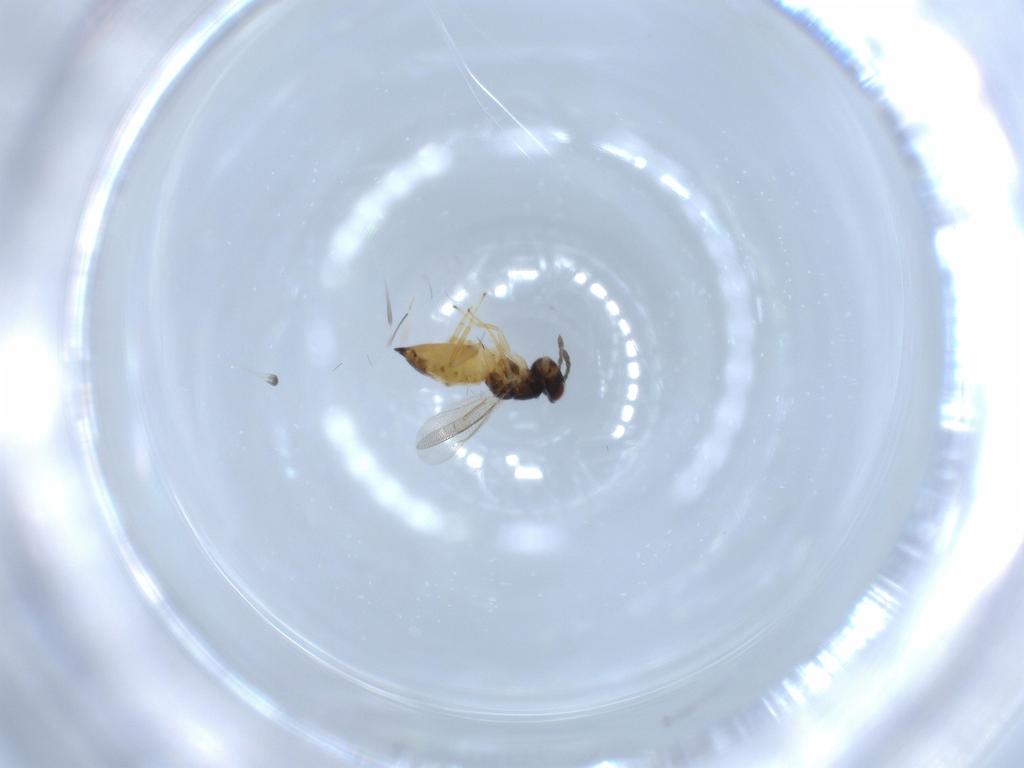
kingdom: Animalia
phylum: Arthropoda
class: Insecta
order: Hymenoptera
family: Eulophidae
